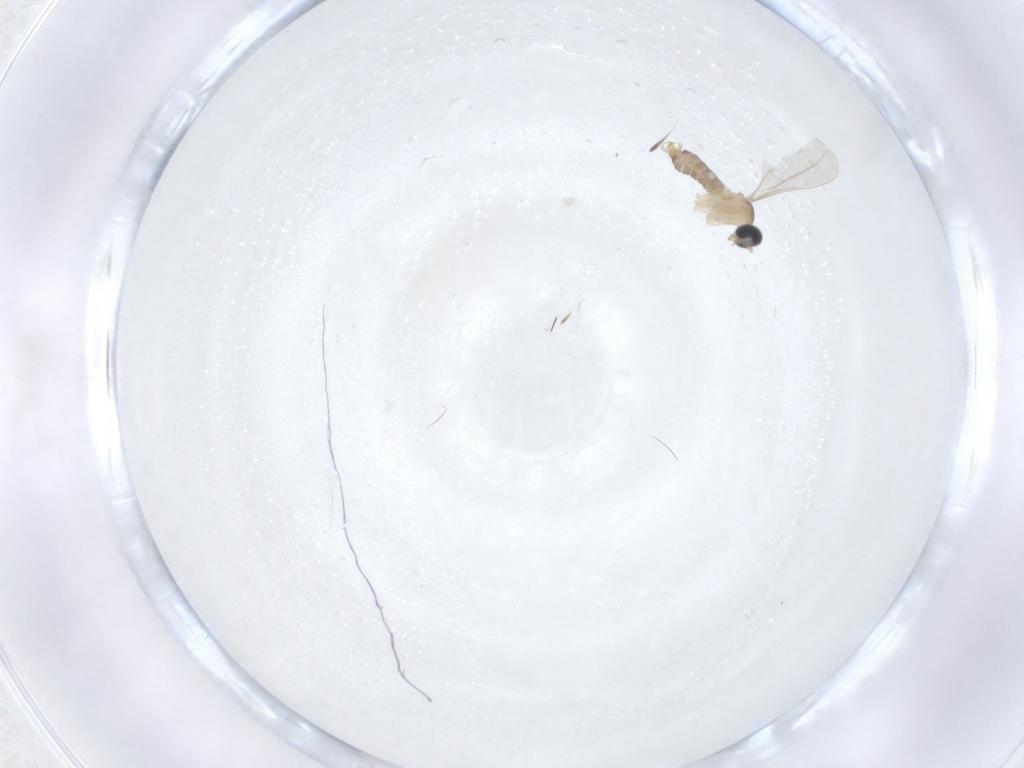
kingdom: Animalia
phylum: Arthropoda
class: Insecta
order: Diptera
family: Cecidomyiidae
